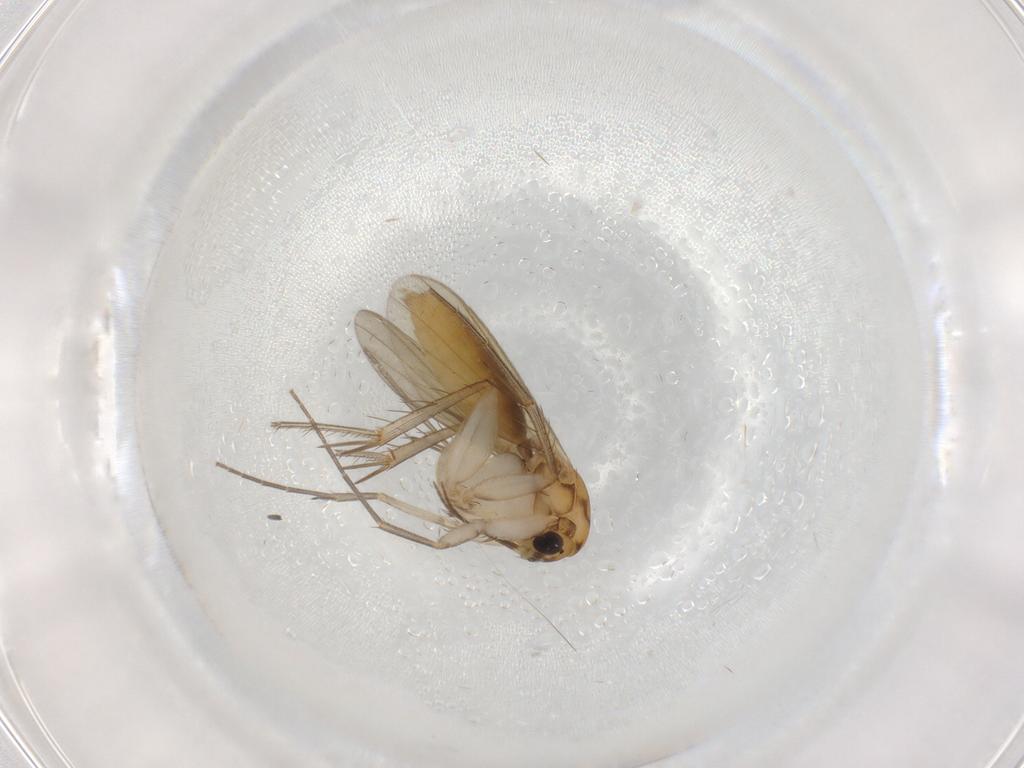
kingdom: Animalia
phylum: Arthropoda
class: Insecta
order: Diptera
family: Mycetophilidae
